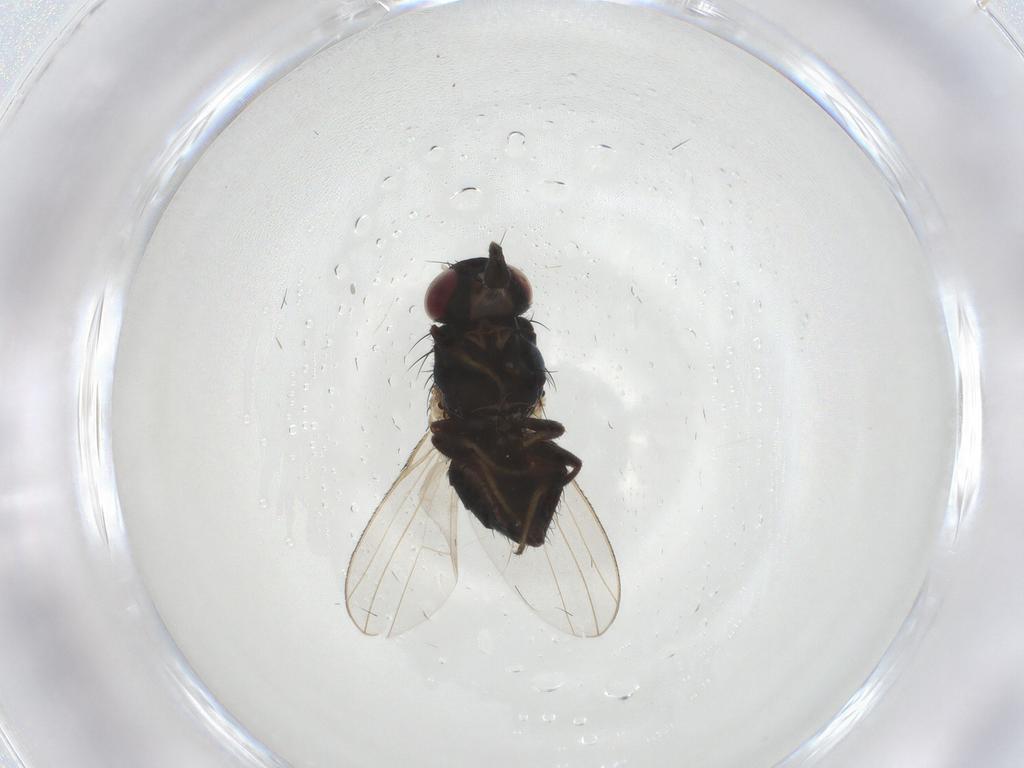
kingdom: Animalia
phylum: Arthropoda
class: Insecta
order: Diptera
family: Carnidae
